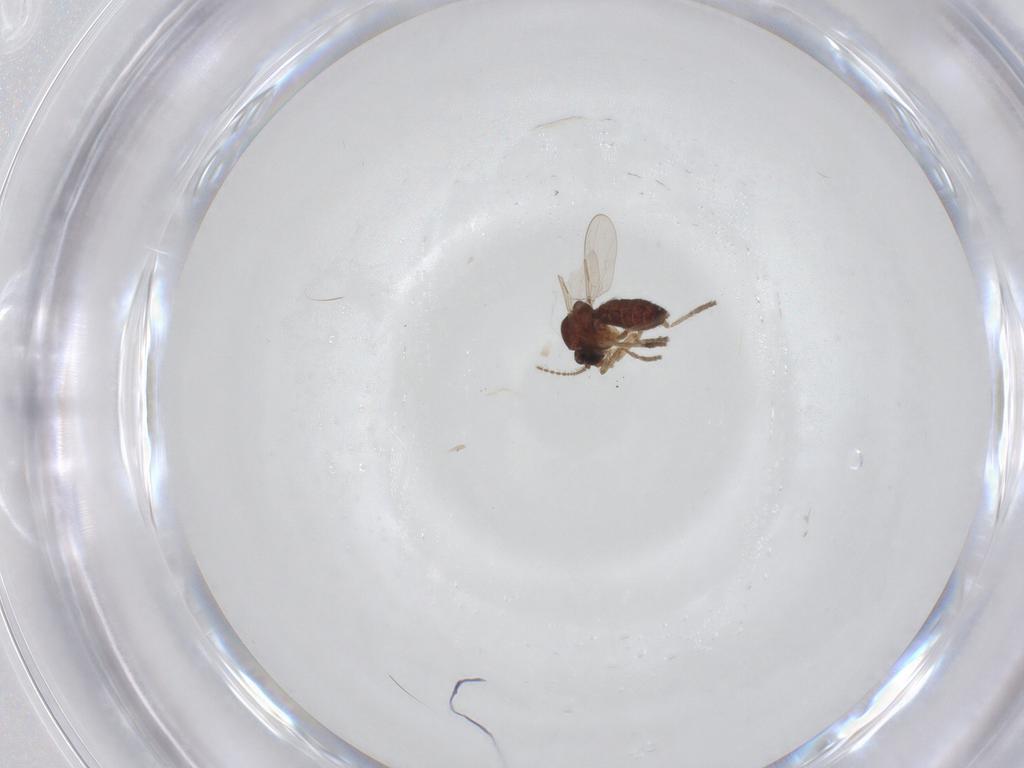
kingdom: Animalia
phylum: Arthropoda
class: Insecta
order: Diptera
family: Ceratopogonidae
